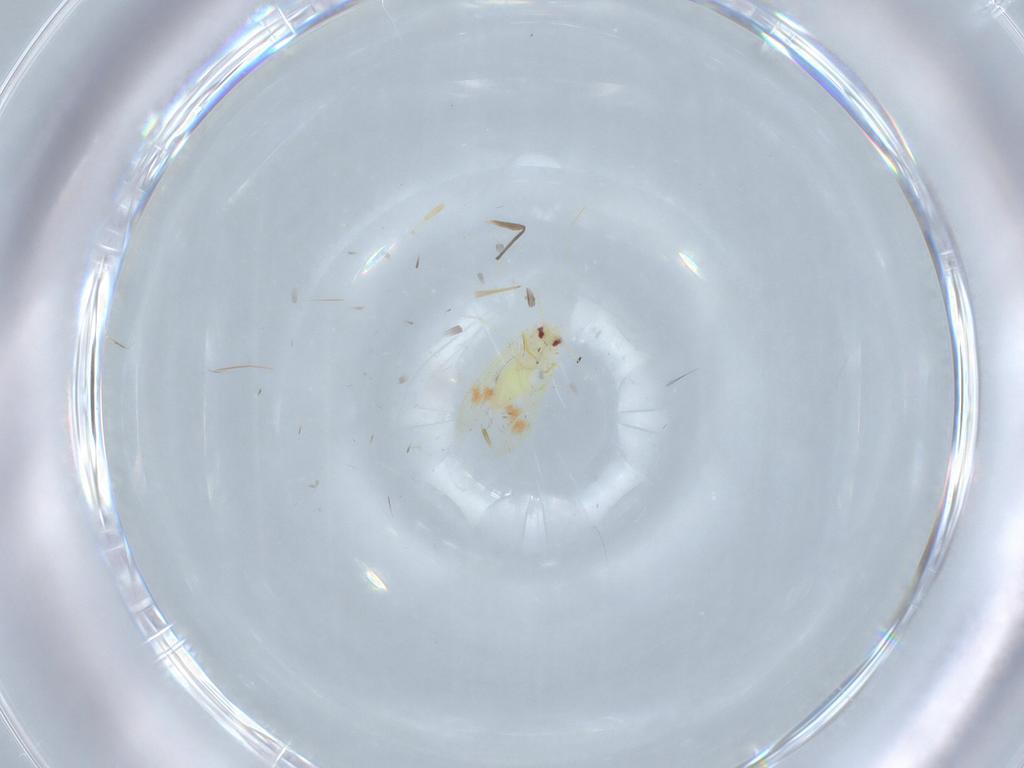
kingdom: Animalia
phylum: Arthropoda
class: Insecta
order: Hemiptera
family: Aleyrodidae
